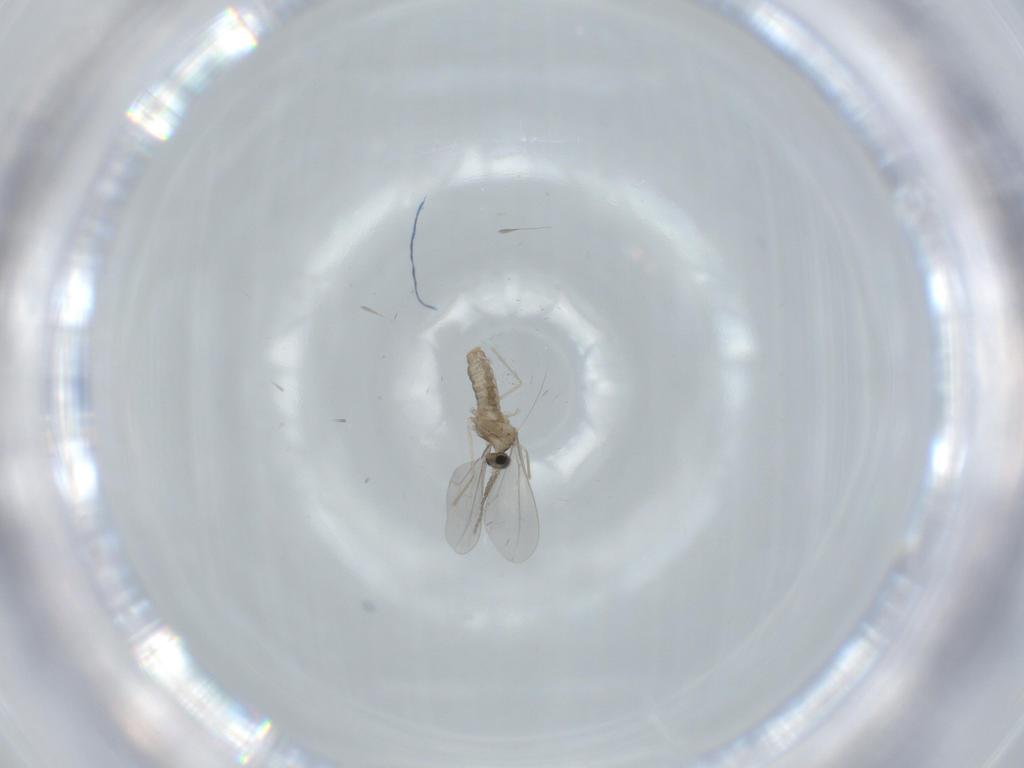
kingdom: Animalia
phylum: Arthropoda
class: Insecta
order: Diptera
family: Cecidomyiidae
